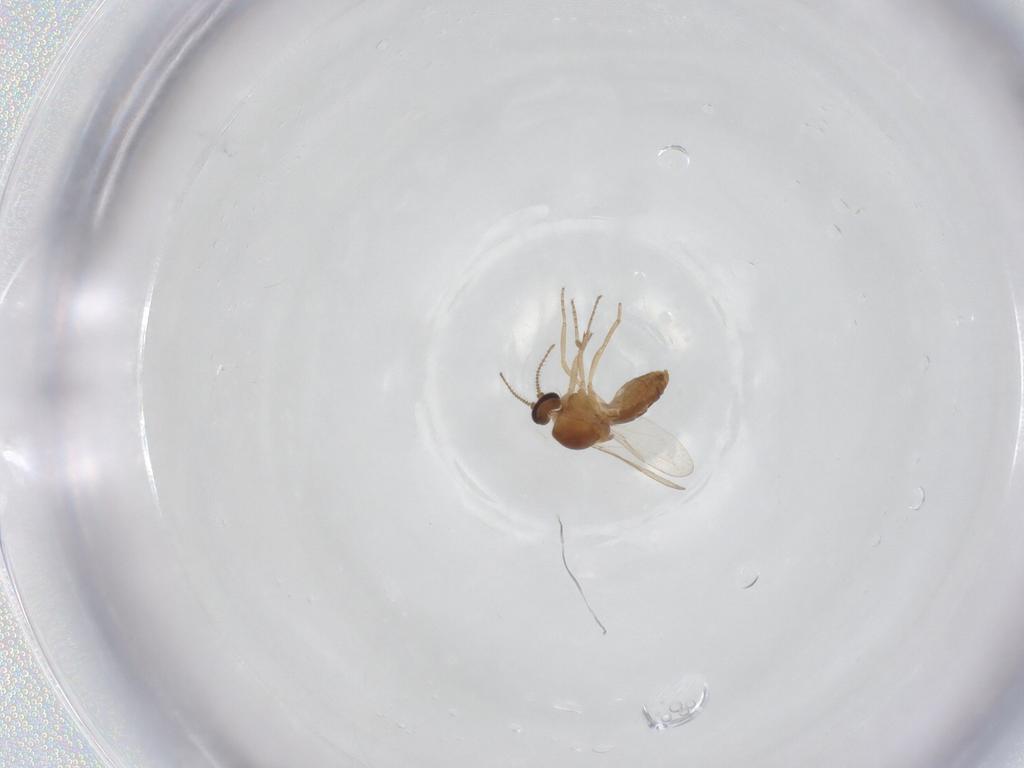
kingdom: Animalia
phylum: Arthropoda
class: Insecta
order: Diptera
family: Ceratopogonidae
